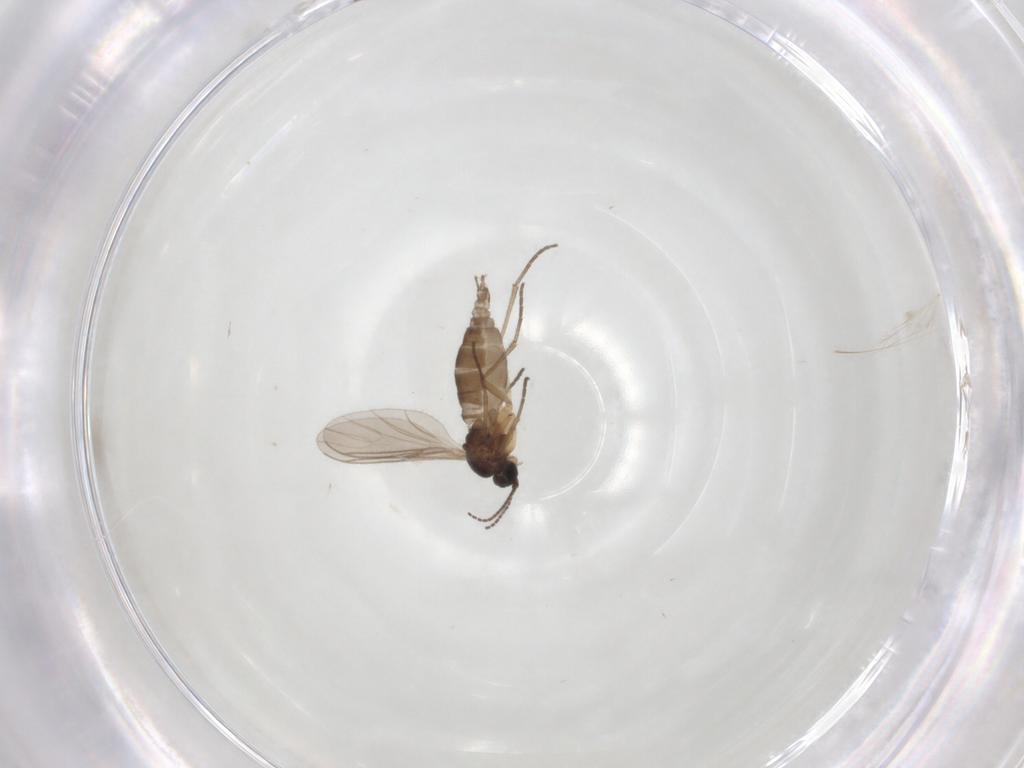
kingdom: Animalia
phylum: Arthropoda
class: Insecta
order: Diptera
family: Sciaridae
